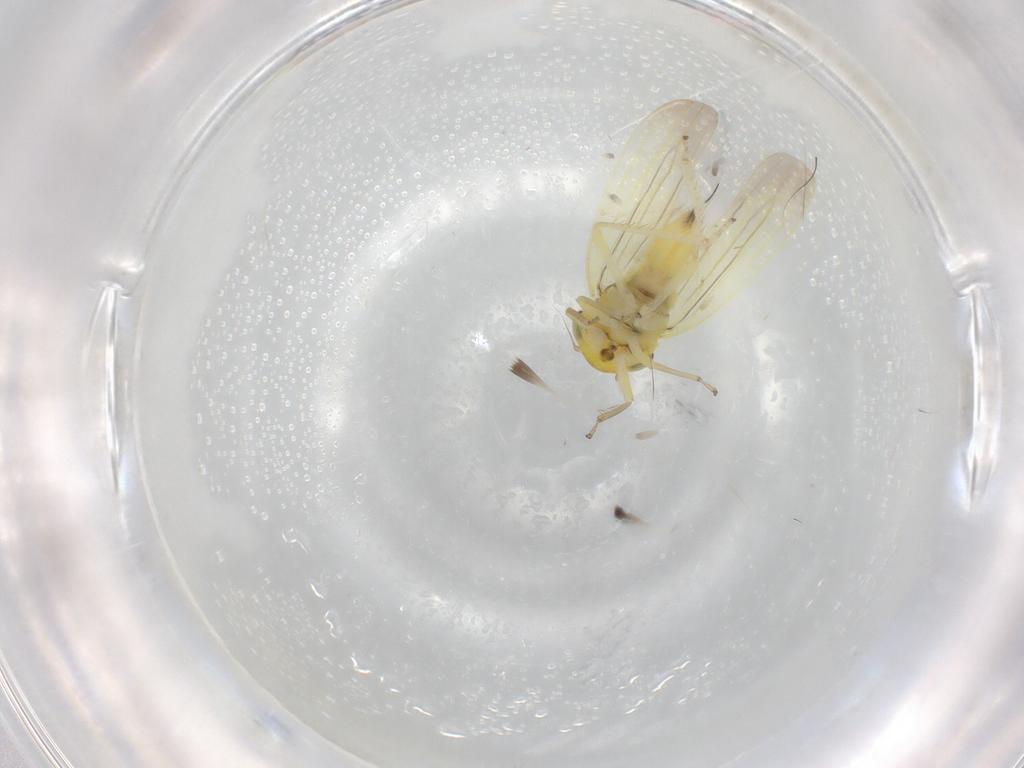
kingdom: Animalia
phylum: Arthropoda
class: Insecta
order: Hemiptera
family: Cicadellidae
